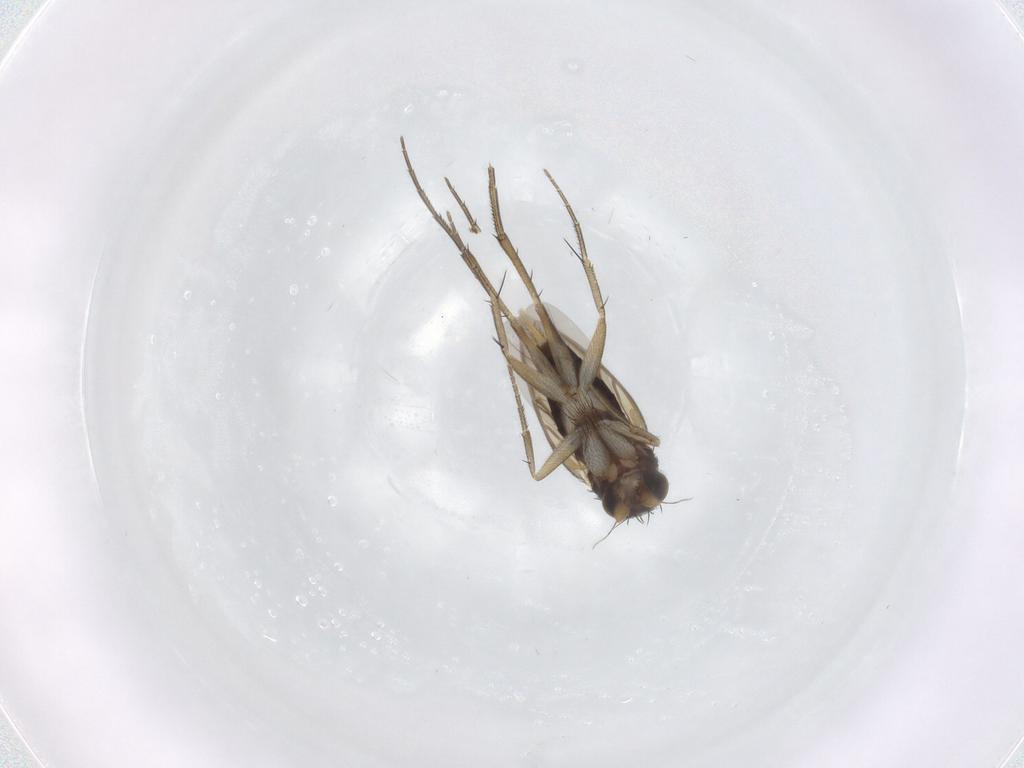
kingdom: Animalia
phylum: Arthropoda
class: Insecta
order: Diptera
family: Phoridae
